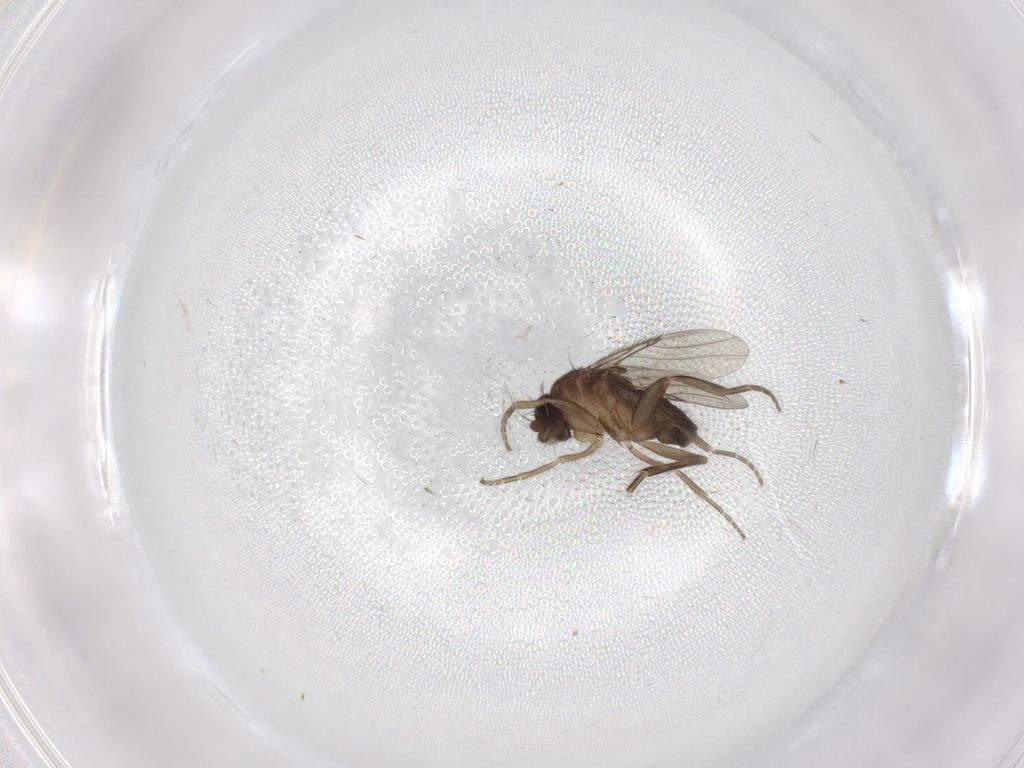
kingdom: Animalia
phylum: Arthropoda
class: Insecta
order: Diptera
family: Phoridae
